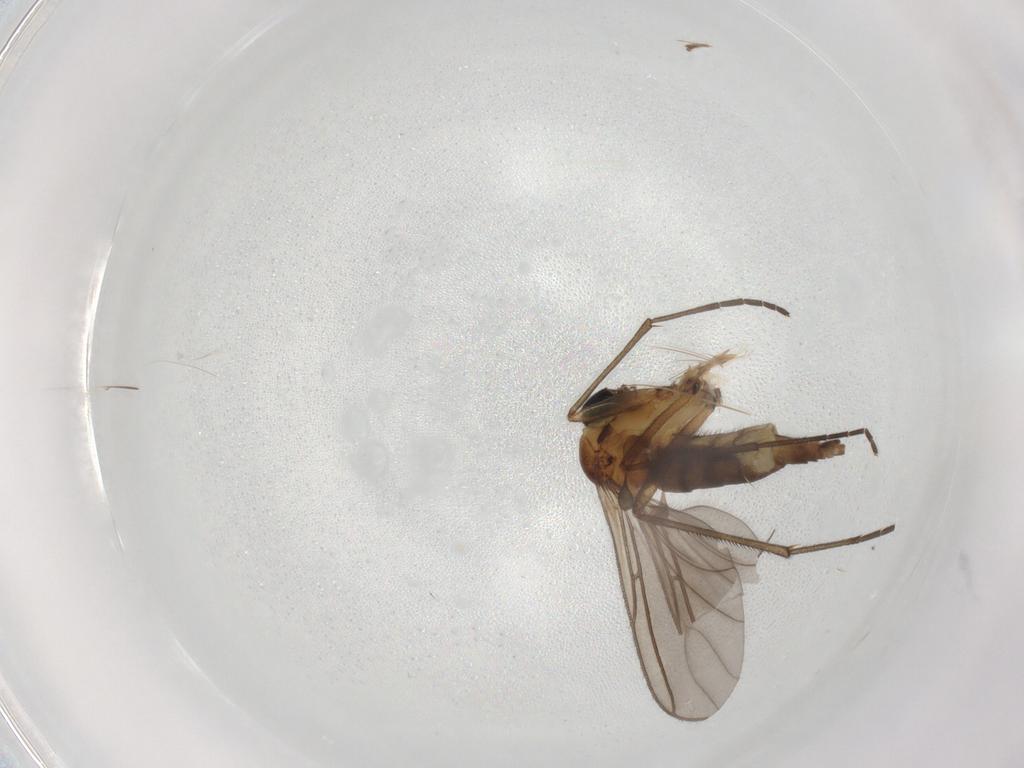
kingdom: Animalia
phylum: Arthropoda
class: Insecta
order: Diptera
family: Sciaridae
